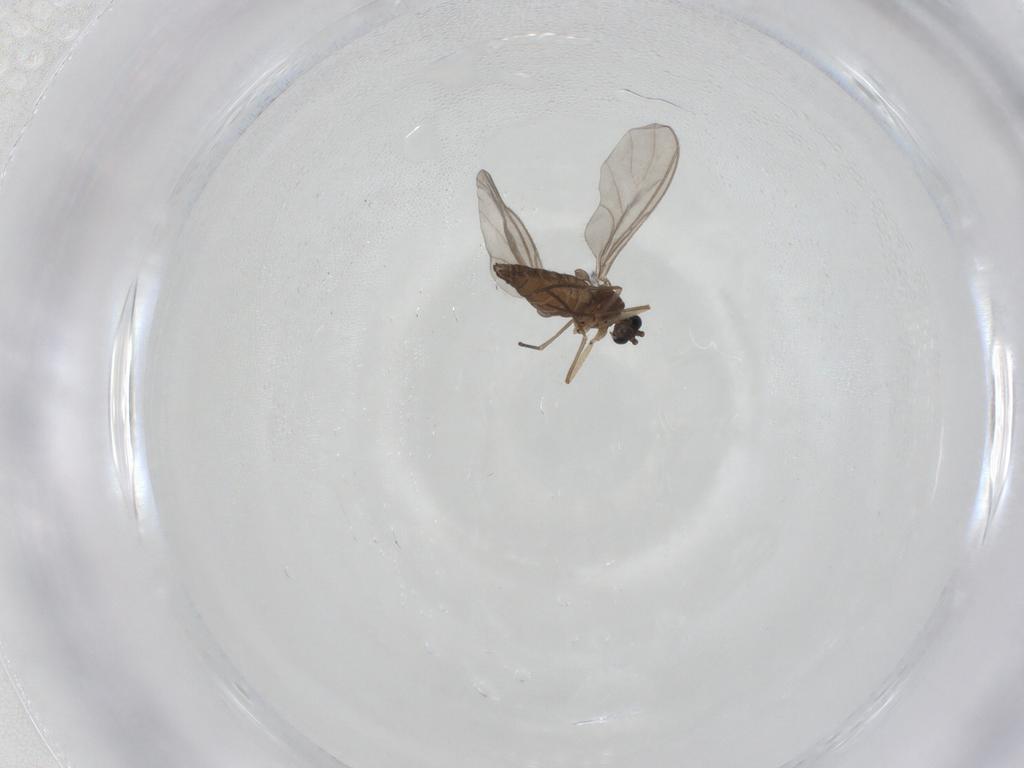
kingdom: Animalia
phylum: Arthropoda
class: Insecta
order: Diptera
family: Sciaridae
